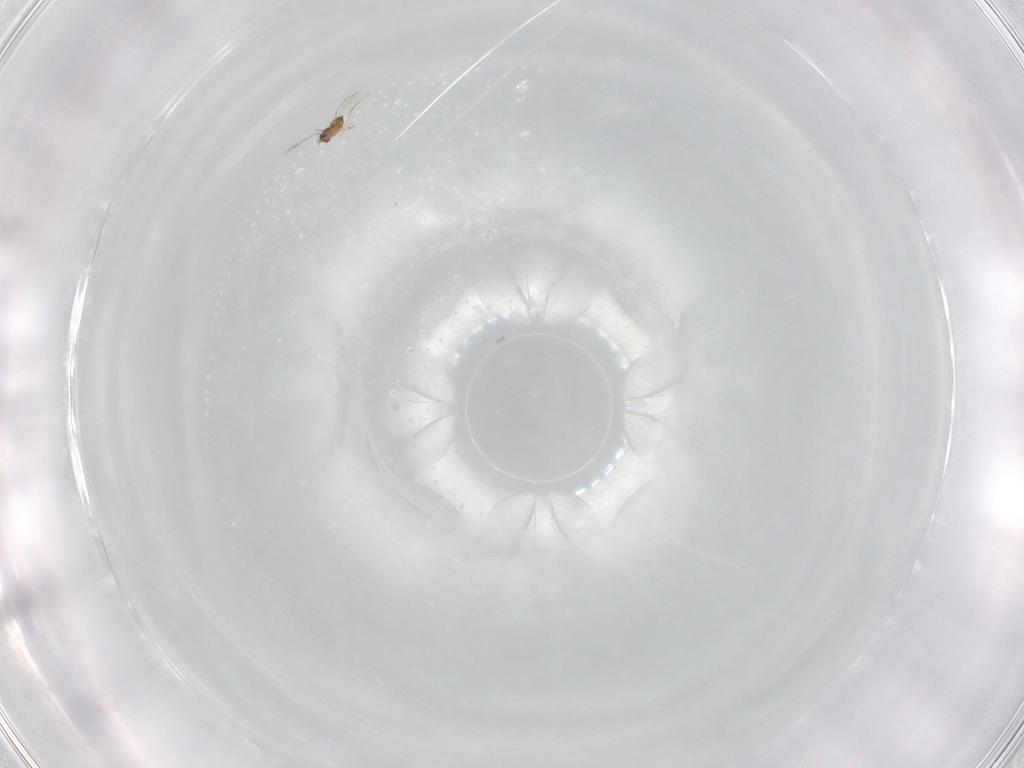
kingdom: Animalia
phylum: Arthropoda
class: Insecta
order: Hymenoptera
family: Mymaridae
